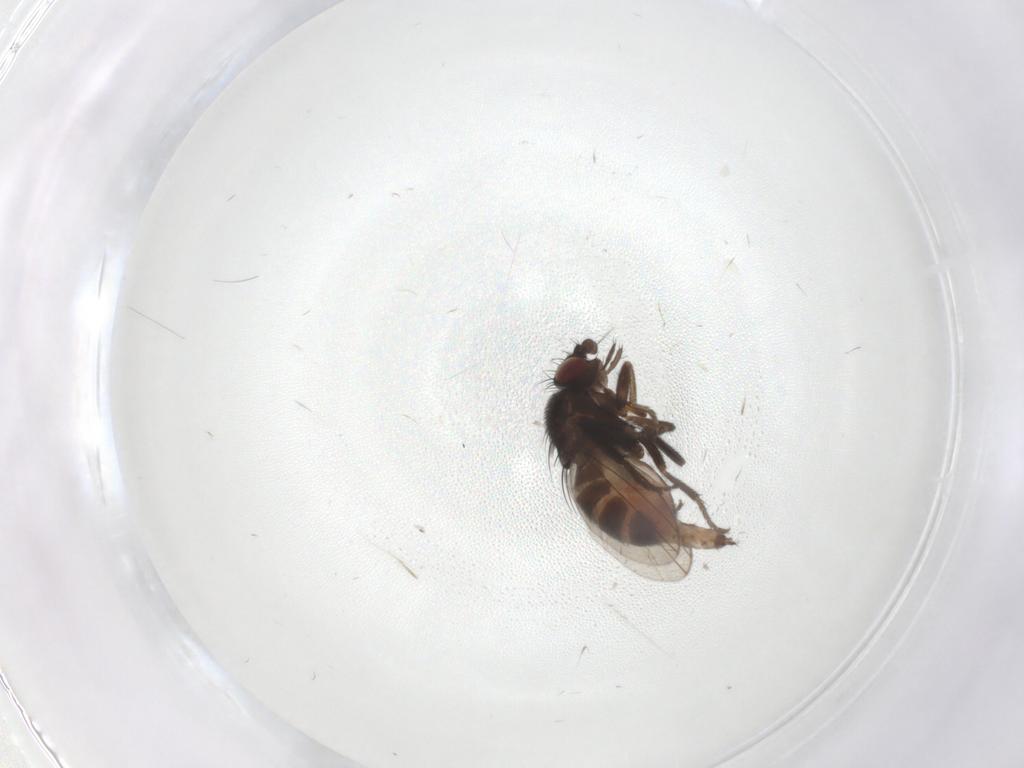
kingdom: Animalia
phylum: Arthropoda
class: Insecta
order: Diptera
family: Milichiidae
